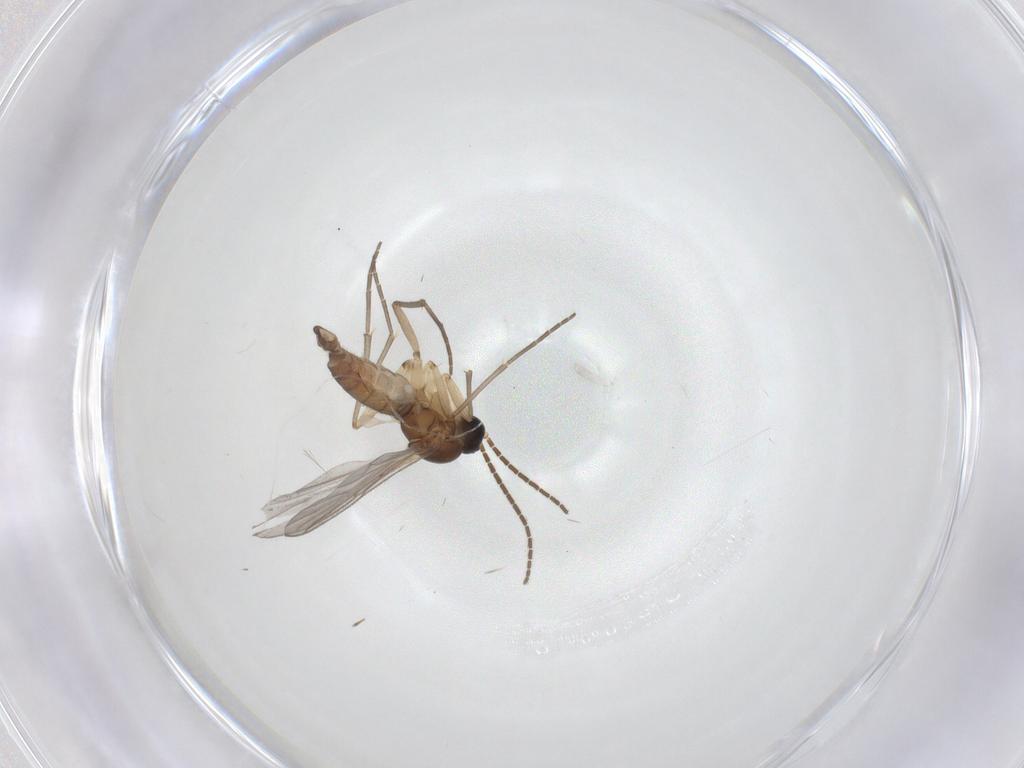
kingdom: Animalia
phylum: Arthropoda
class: Insecta
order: Diptera
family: Sciaridae
